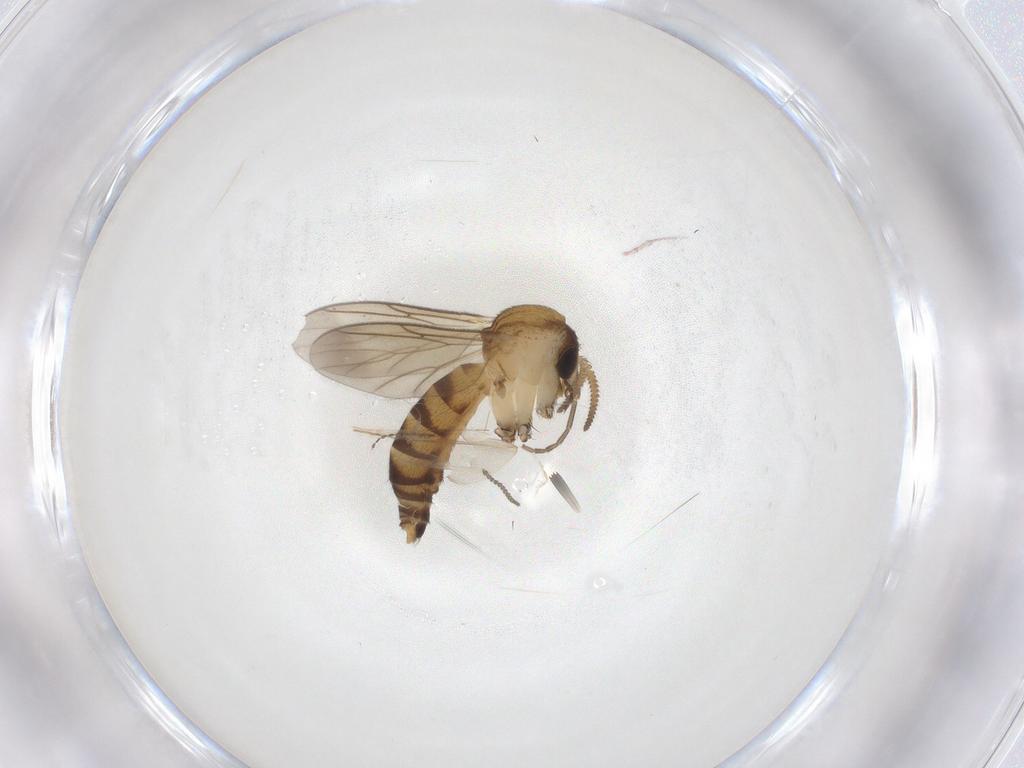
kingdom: Animalia
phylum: Arthropoda
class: Insecta
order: Diptera
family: Mycetophilidae
